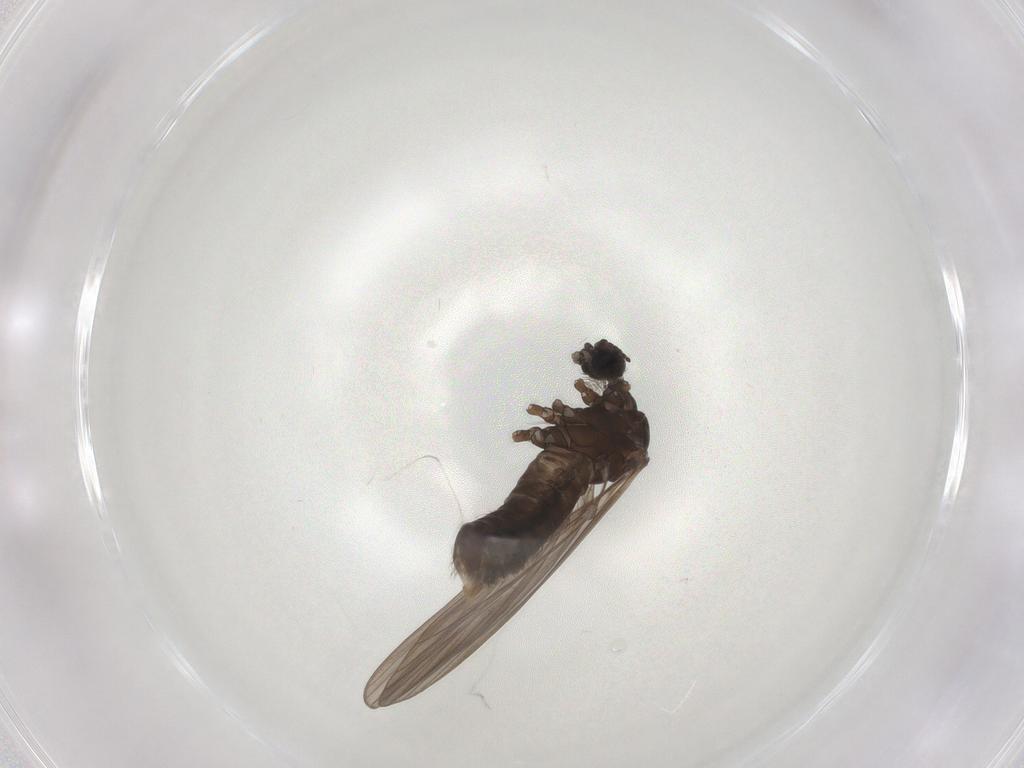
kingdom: Animalia
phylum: Arthropoda
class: Insecta
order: Diptera
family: Limoniidae
